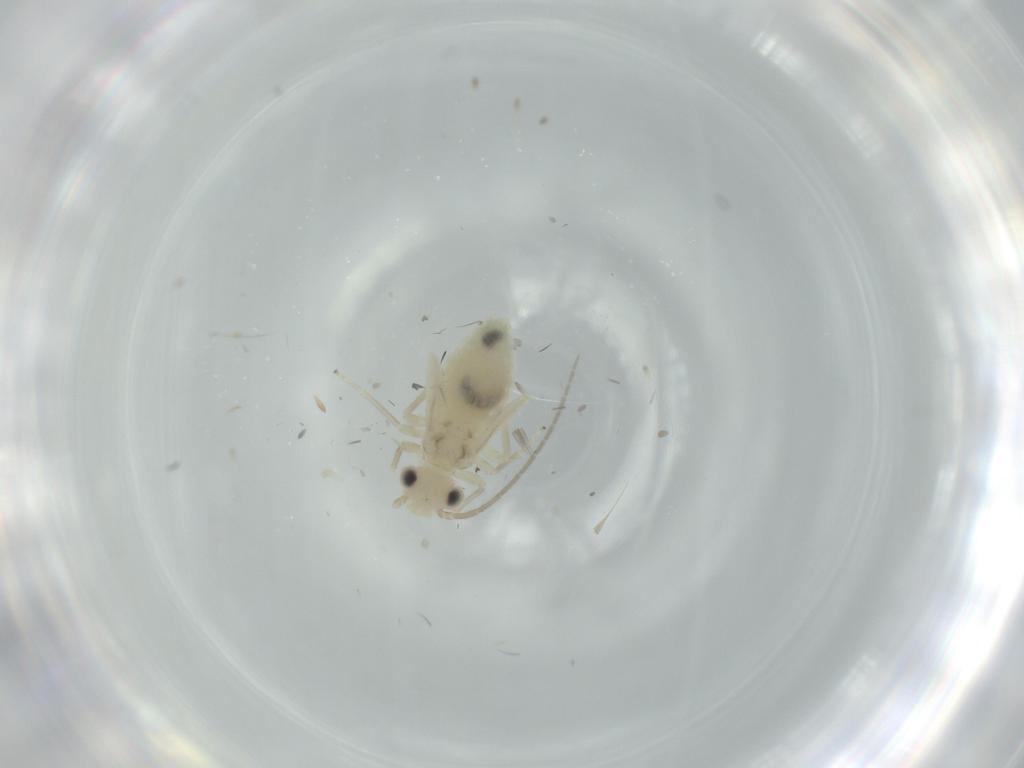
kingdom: Animalia
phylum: Arthropoda
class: Insecta
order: Psocodea
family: Caeciliusidae
